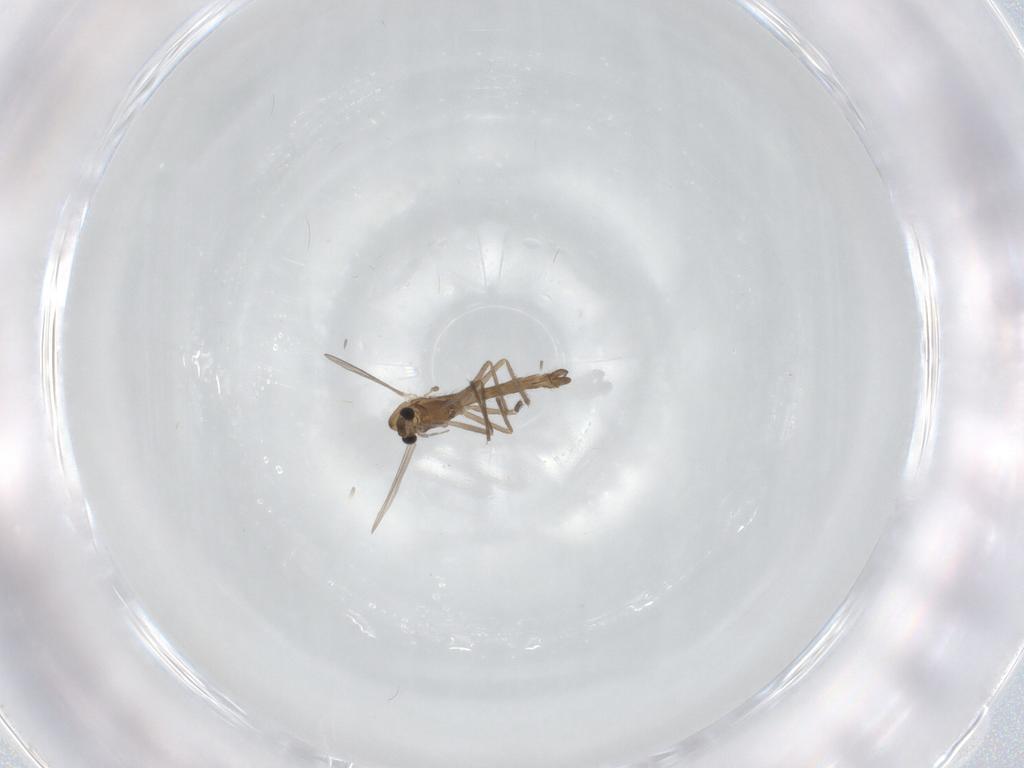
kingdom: Animalia
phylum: Arthropoda
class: Insecta
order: Diptera
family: Chironomidae
